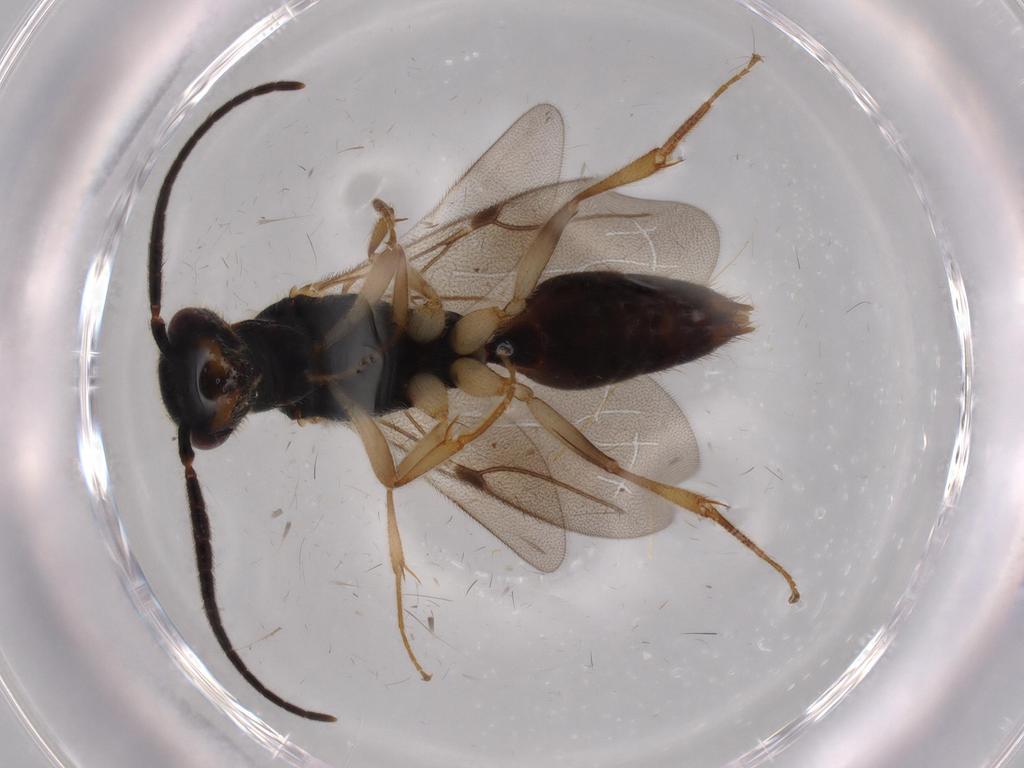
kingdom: Animalia
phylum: Arthropoda
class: Insecta
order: Hymenoptera
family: Bethylidae
